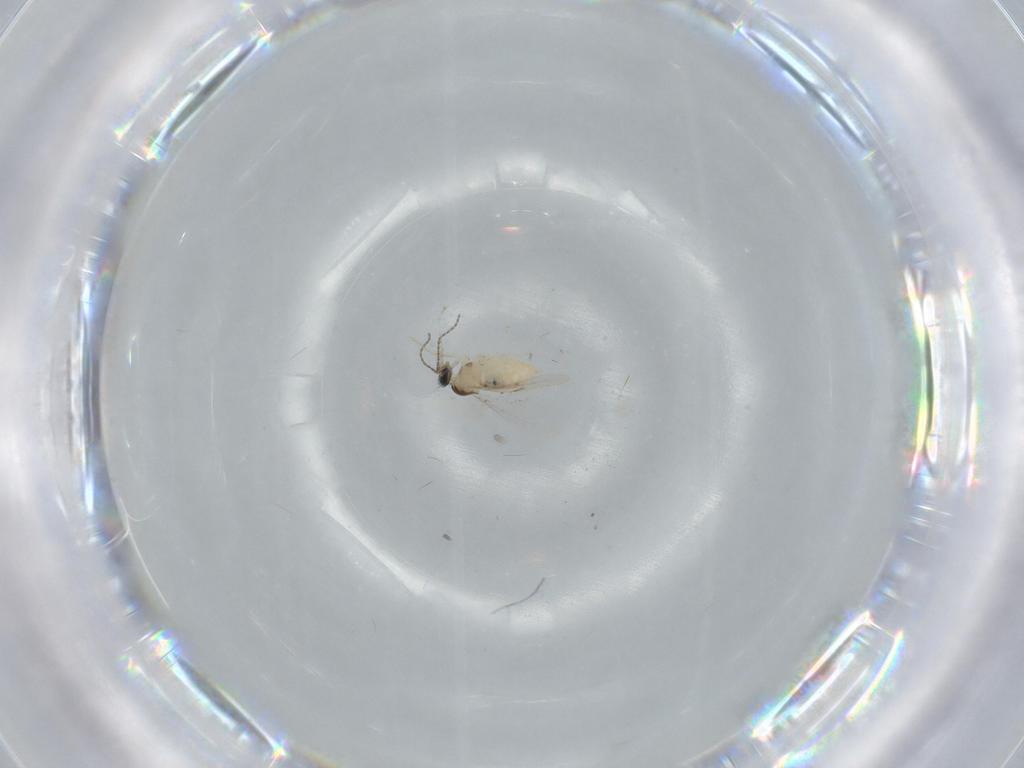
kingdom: Animalia
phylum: Arthropoda
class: Insecta
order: Diptera
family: Cecidomyiidae
